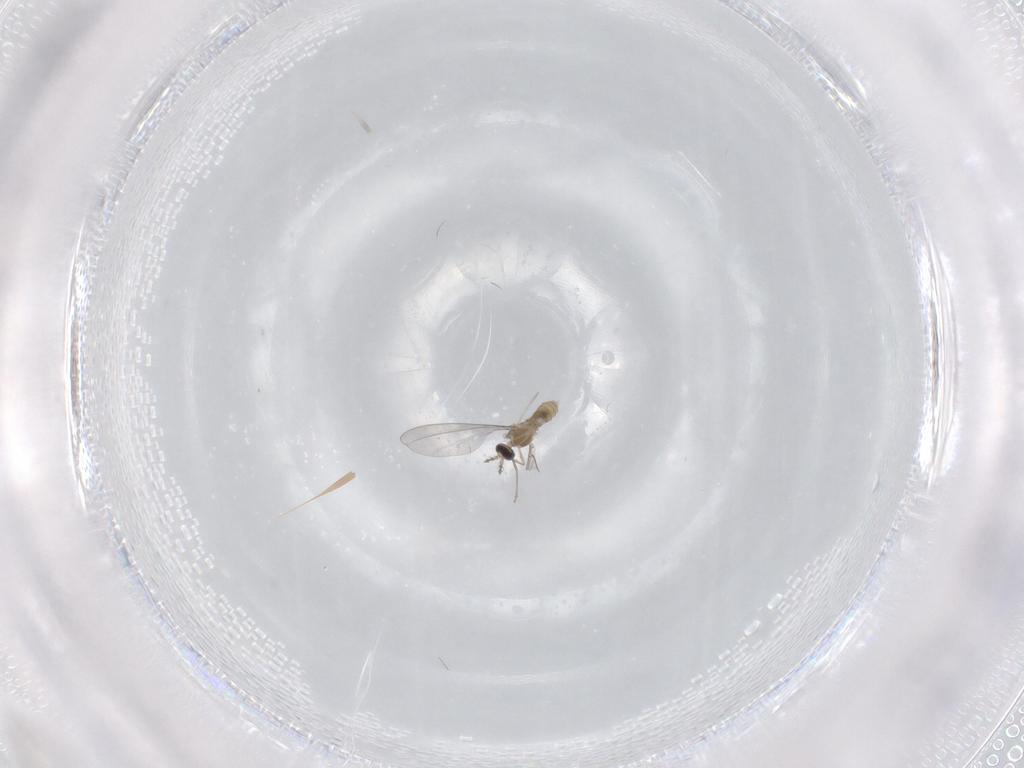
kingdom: Animalia
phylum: Arthropoda
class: Insecta
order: Diptera
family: Cecidomyiidae
